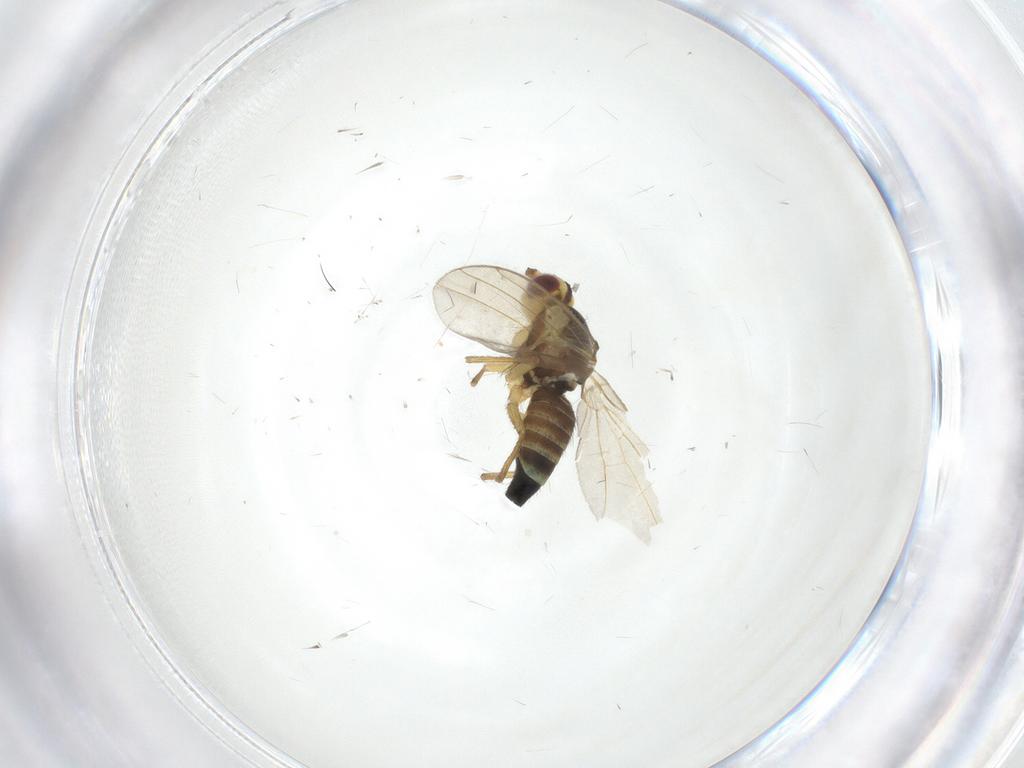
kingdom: Animalia
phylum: Arthropoda
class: Insecta
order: Diptera
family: Agromyzidae
